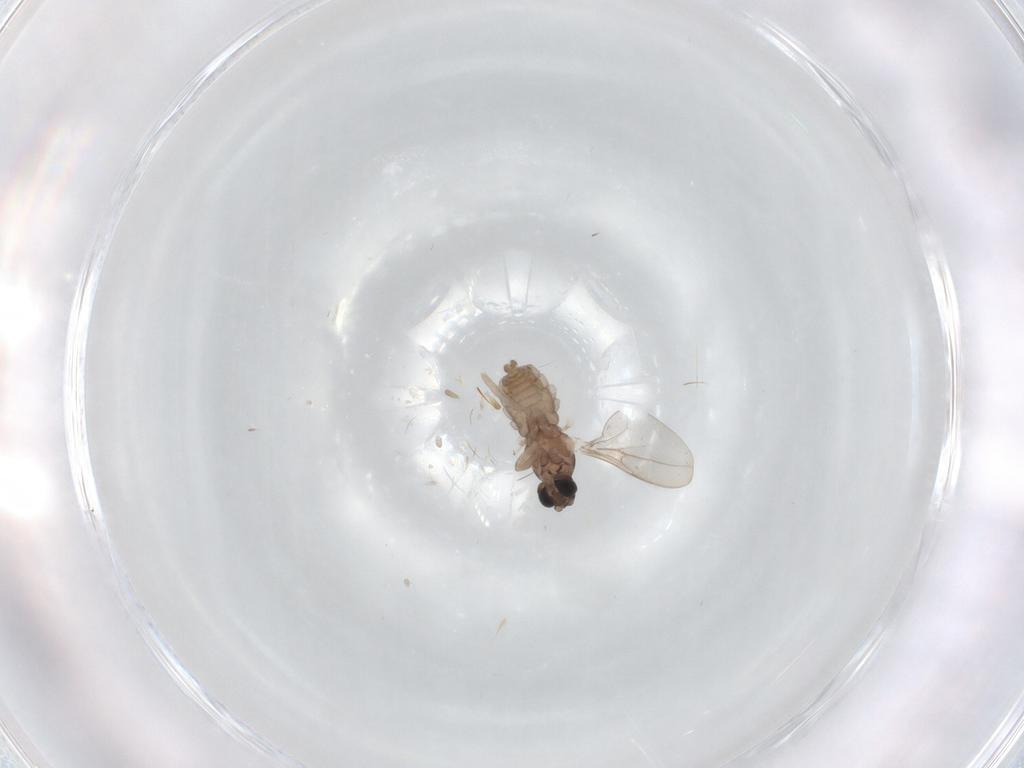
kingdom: Animalia
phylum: Arthropoda
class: Insecta
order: Diptera
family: Cecidomyiidae
